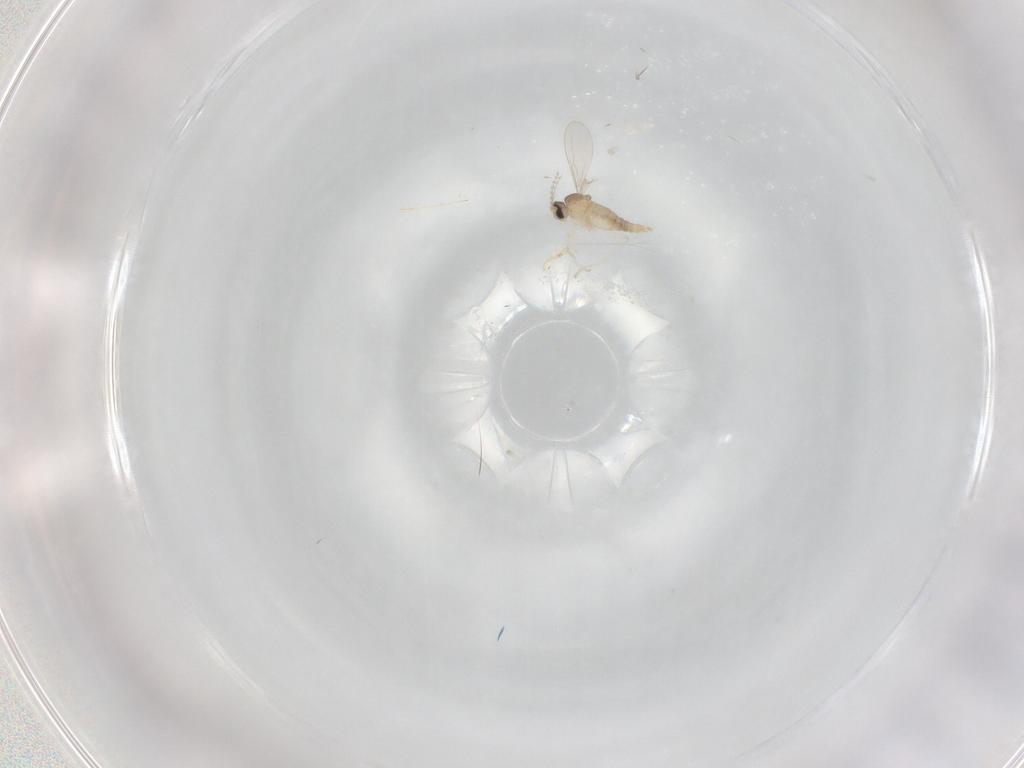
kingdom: Animalia
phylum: Arthropoda
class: Insecta
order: Diptera
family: Cecidomyiidae
